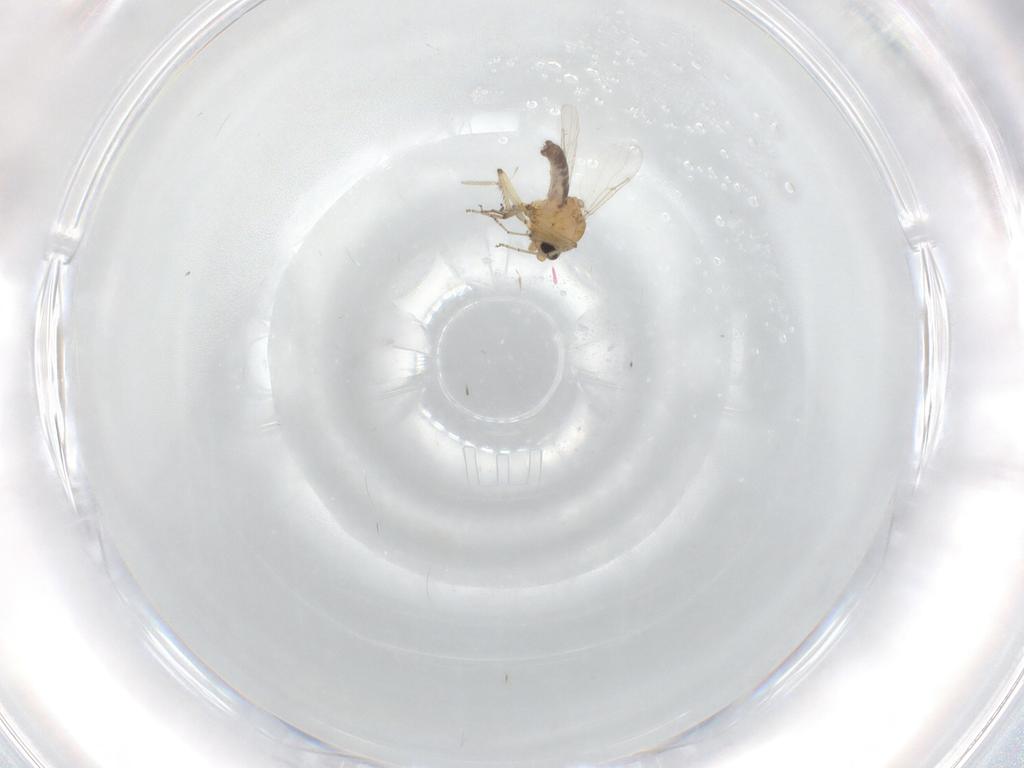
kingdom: Animalia
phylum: Arthropoda
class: Insecta
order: Diptera
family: Ceratopogonidae
